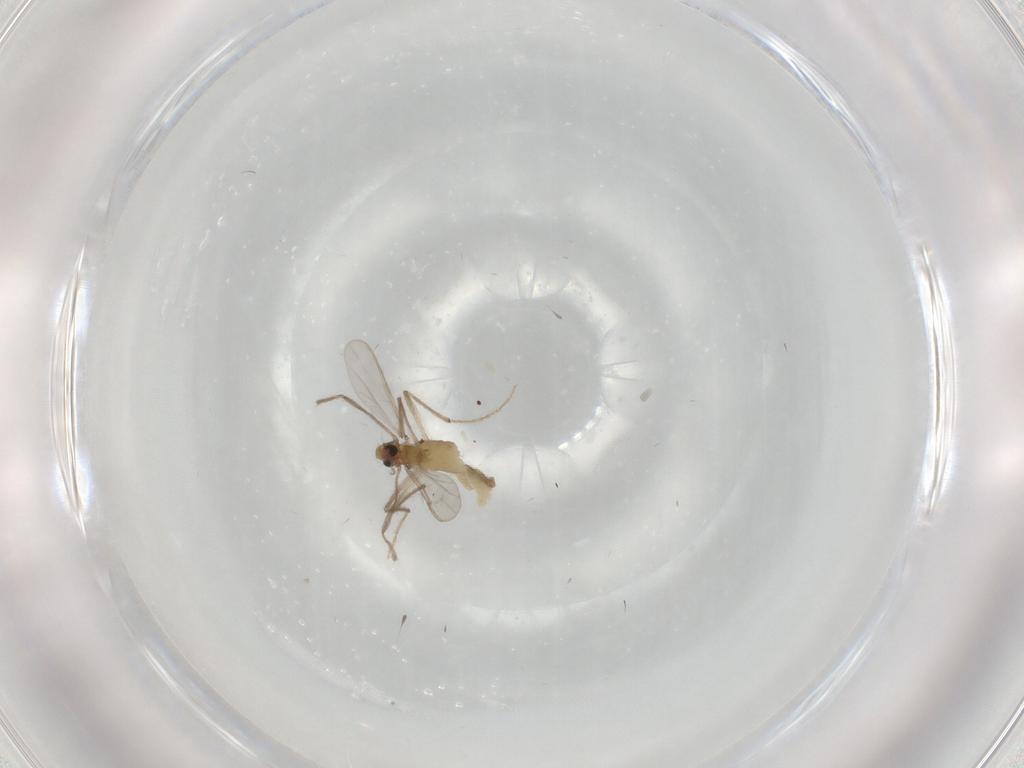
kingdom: Animalia
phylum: Arthropoda
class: Insecta
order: Diptera
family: Chironomidae
